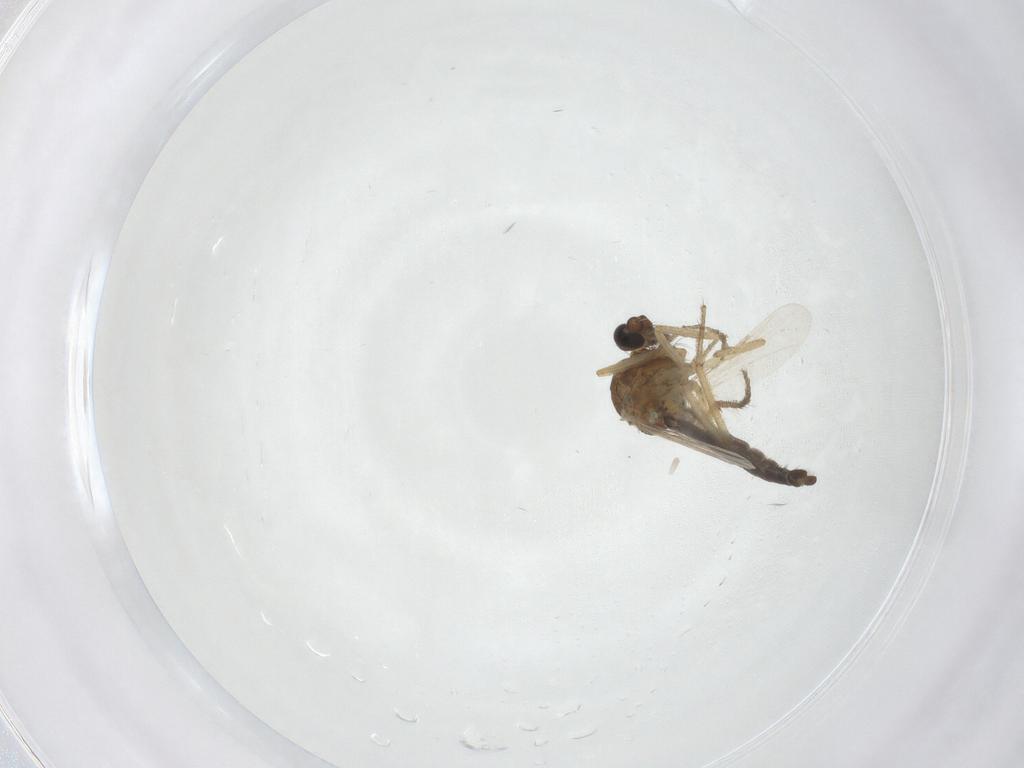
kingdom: Animalia
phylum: Arthropoda
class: Insecta
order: Diptera
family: Ceratopogonidae
